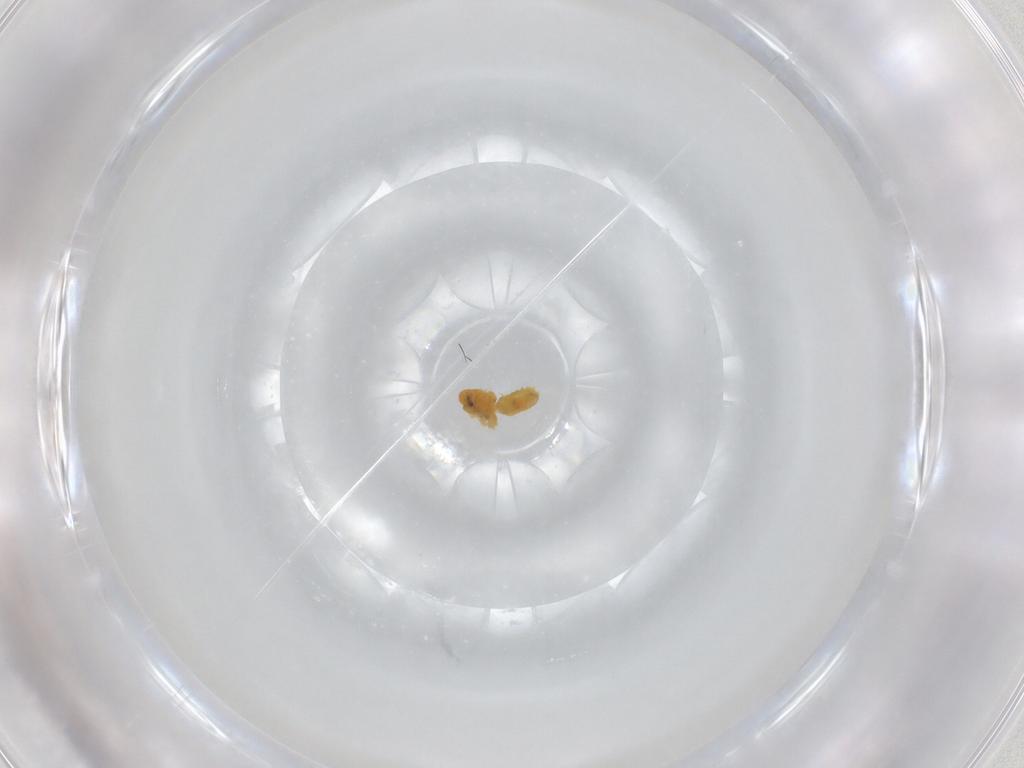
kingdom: Animalia
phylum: Arthropoda
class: Insecta
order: Hemiptera
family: Aleyrodidae
